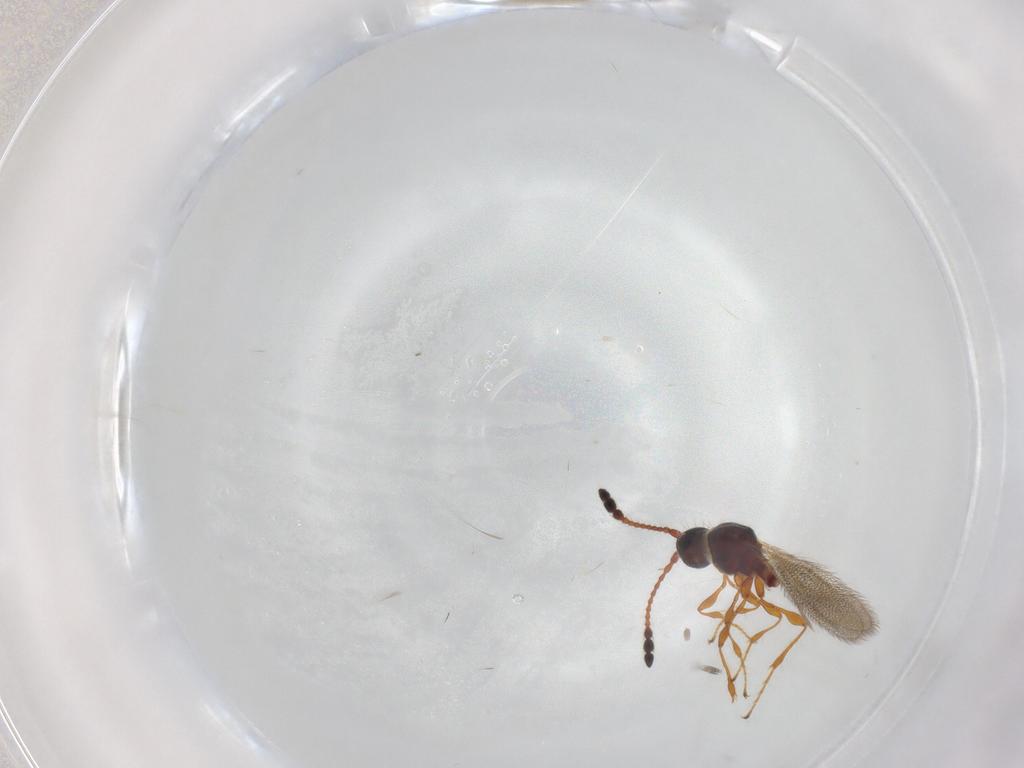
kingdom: Animalia
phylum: Arthropoda
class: Insecta
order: Hymenoptera
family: Diapriidae
